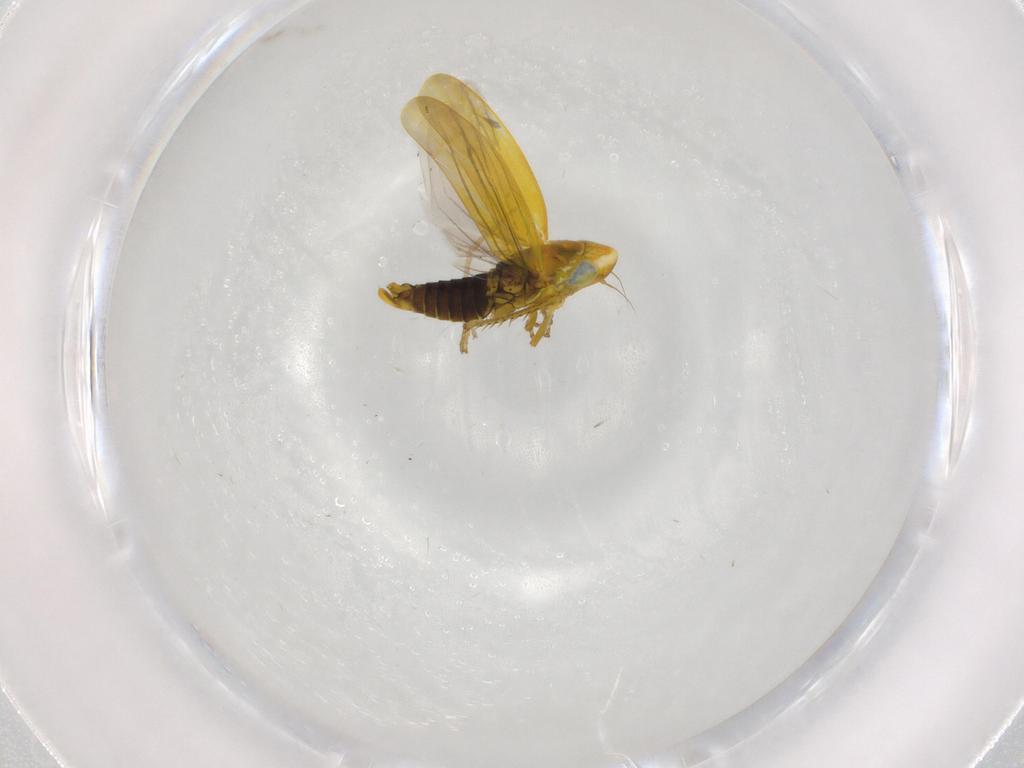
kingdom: Animalia
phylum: Arthropoda
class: Insecta
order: Hemiptera
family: Cicadellidae
